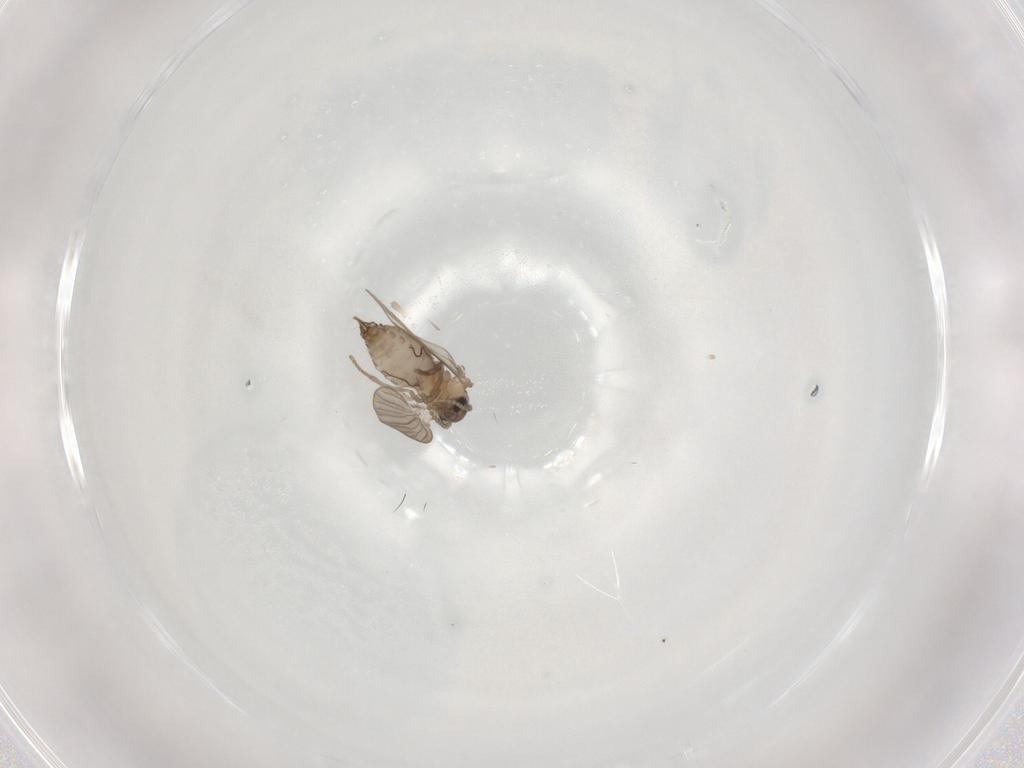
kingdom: Animalia
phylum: Arthropoda
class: Insecta
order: Diptera
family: Psychodidae
